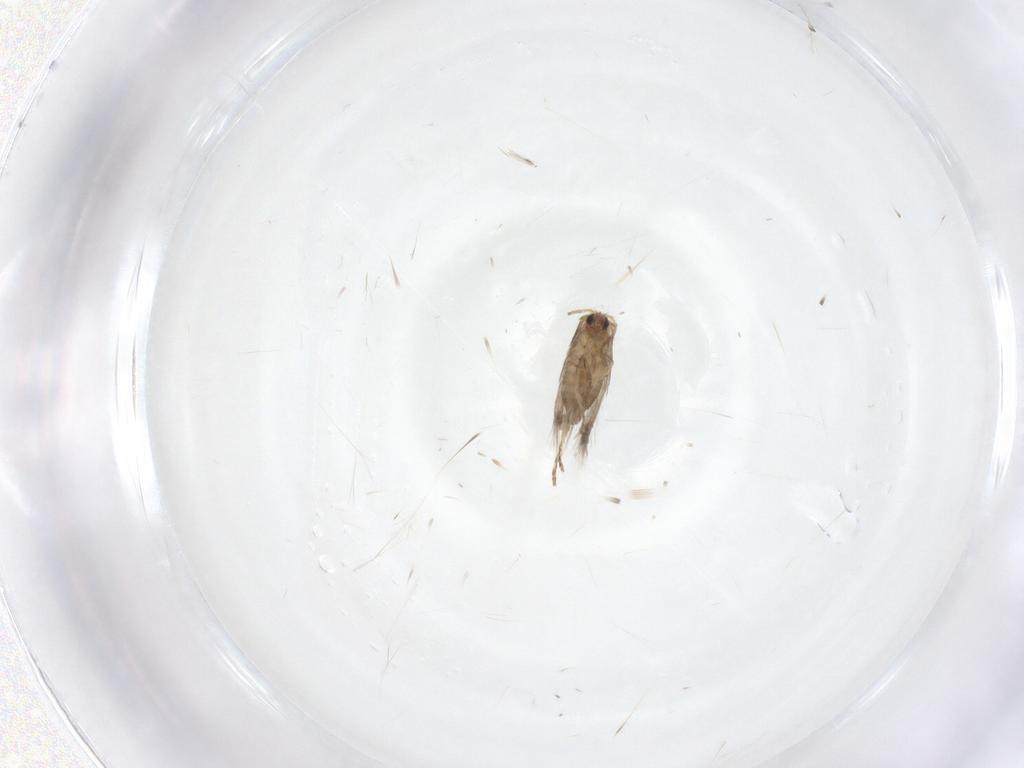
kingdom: Animalia
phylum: Arthropoda
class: Insecta
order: Lepidoptera
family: Nepticulidae
